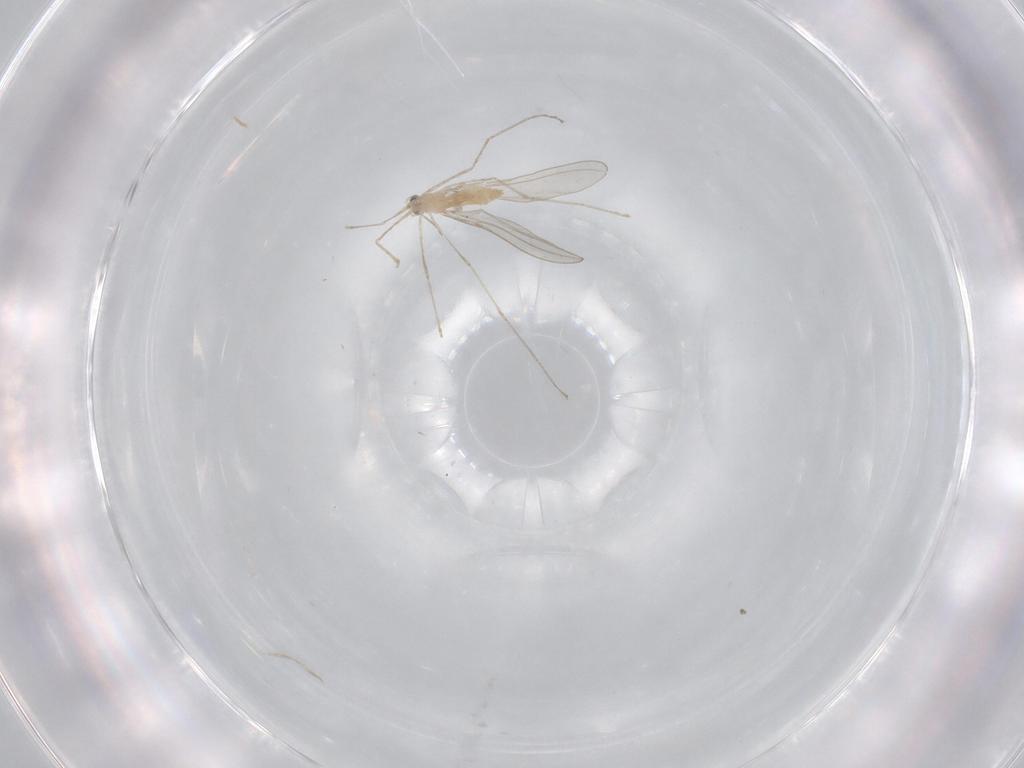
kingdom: Animalia
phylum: Arthropoda
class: Insecta
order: Diptera
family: Cecidomyiidae
